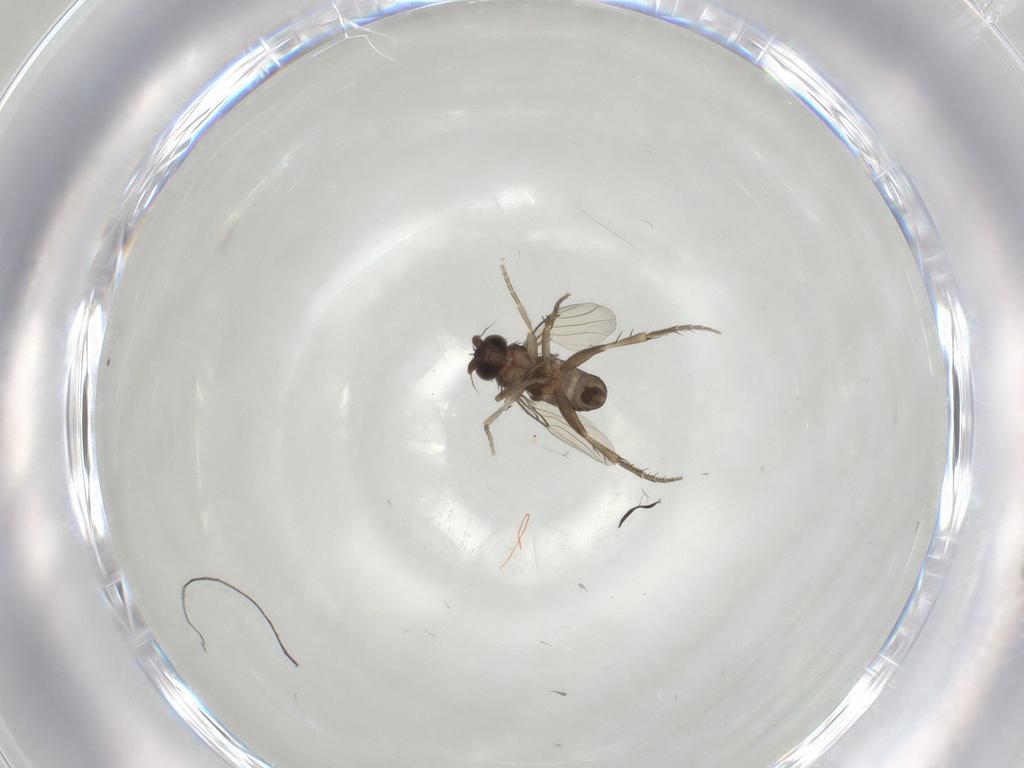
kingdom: Animalia
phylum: Arthropoda
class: Insecta
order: Diptera
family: Phoridae
